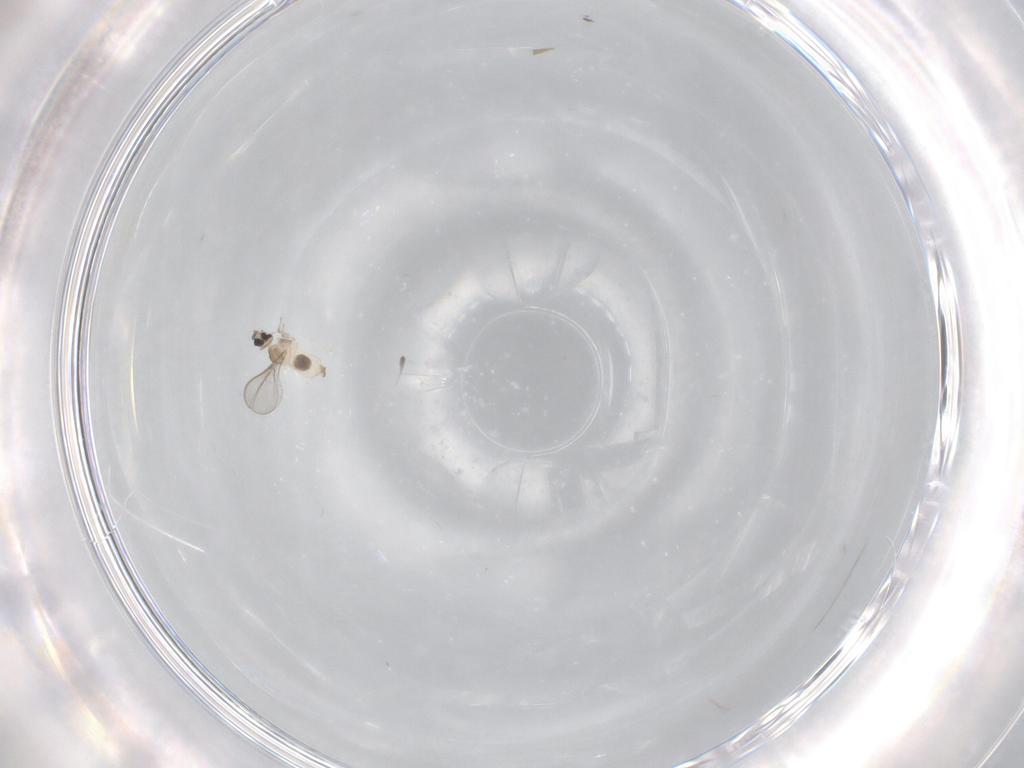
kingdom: Animalia
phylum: Arthropoda
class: Insecta
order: Diptera
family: Cecidomyiidae
